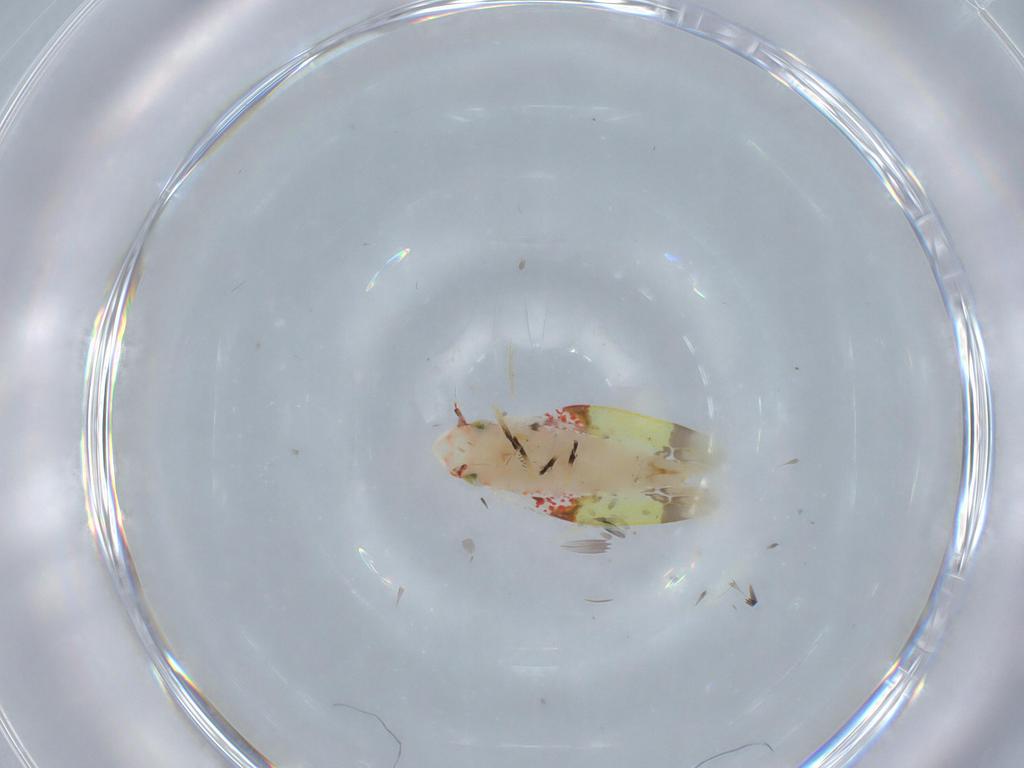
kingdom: Animalia
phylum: Arthropoda
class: Insecta
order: Hemiptera
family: Cicadellidae
